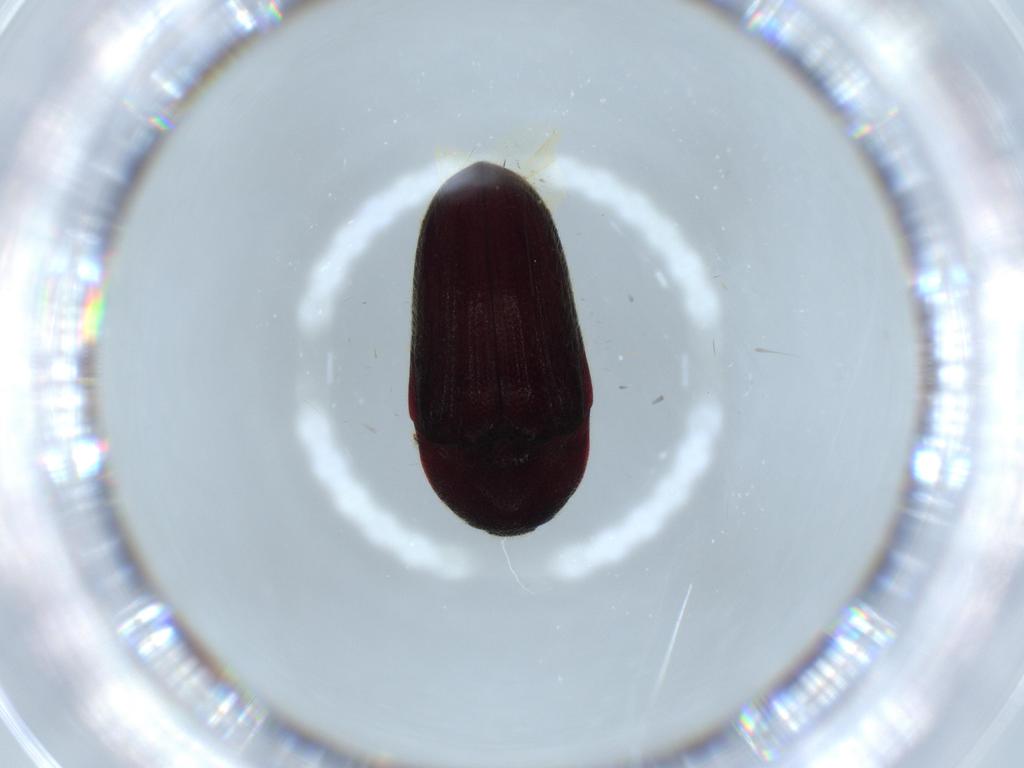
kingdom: Animalia
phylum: Arthropoda
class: Insecta
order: Coleoptera
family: Throscidae
